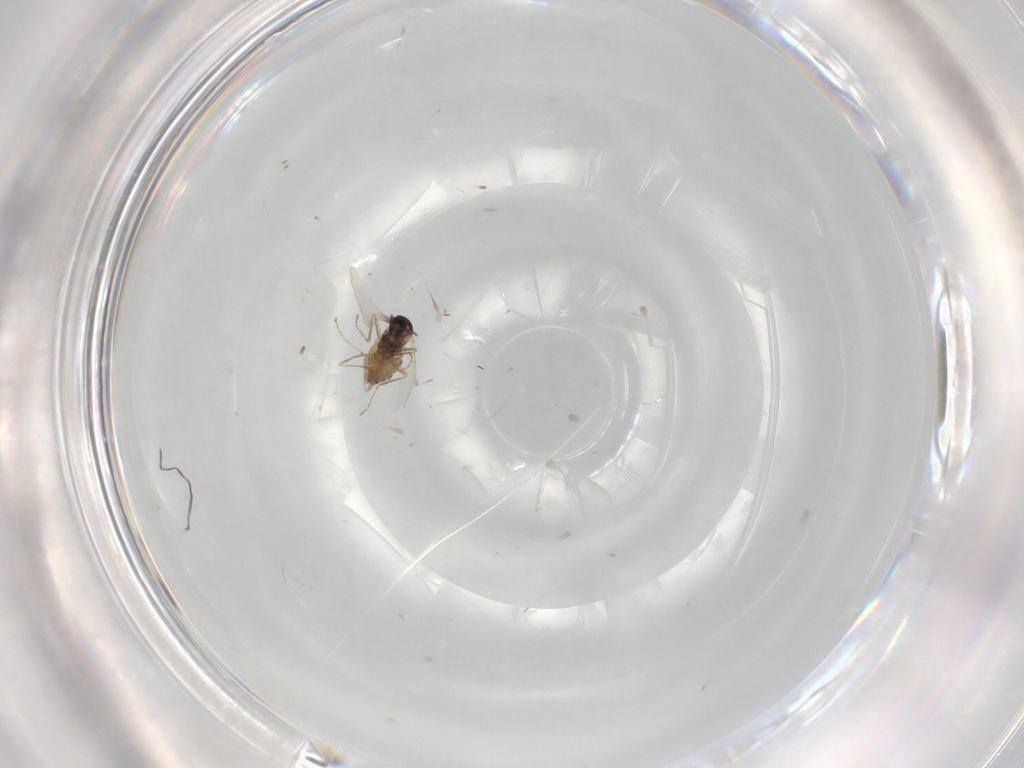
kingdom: Animalia
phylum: Arthropoda
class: Insecta
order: Diptera
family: Cecidomyiidae
